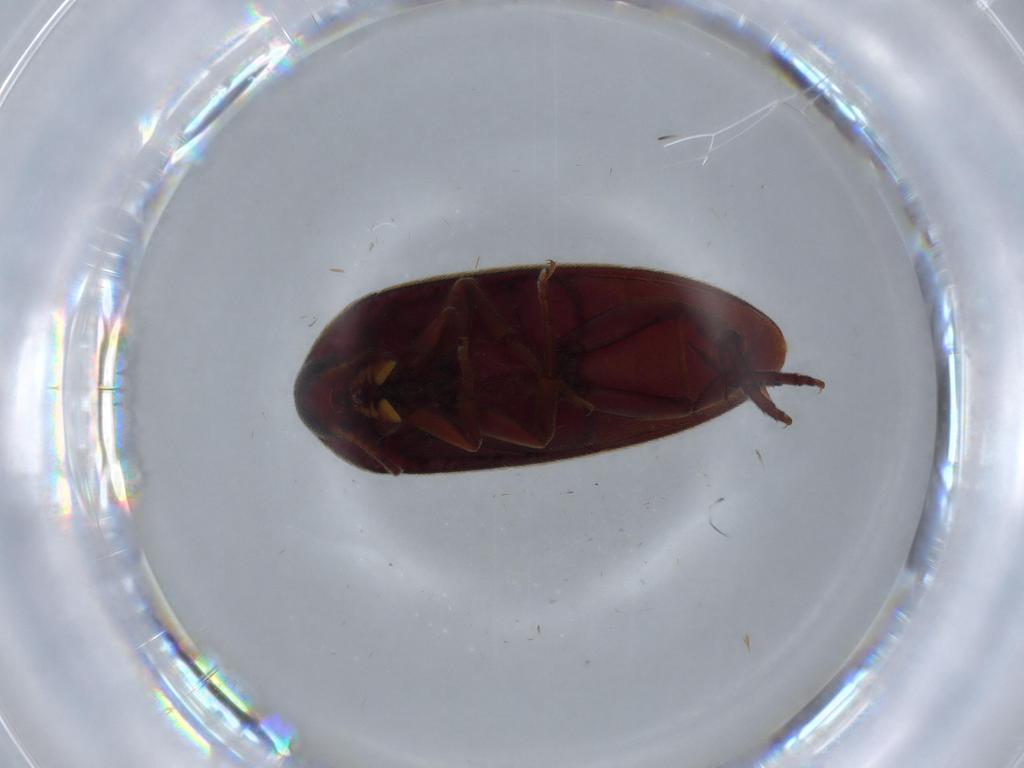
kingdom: Animalia
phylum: Arthropoda
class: Insecta
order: Coleoptera
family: Melandryidae
